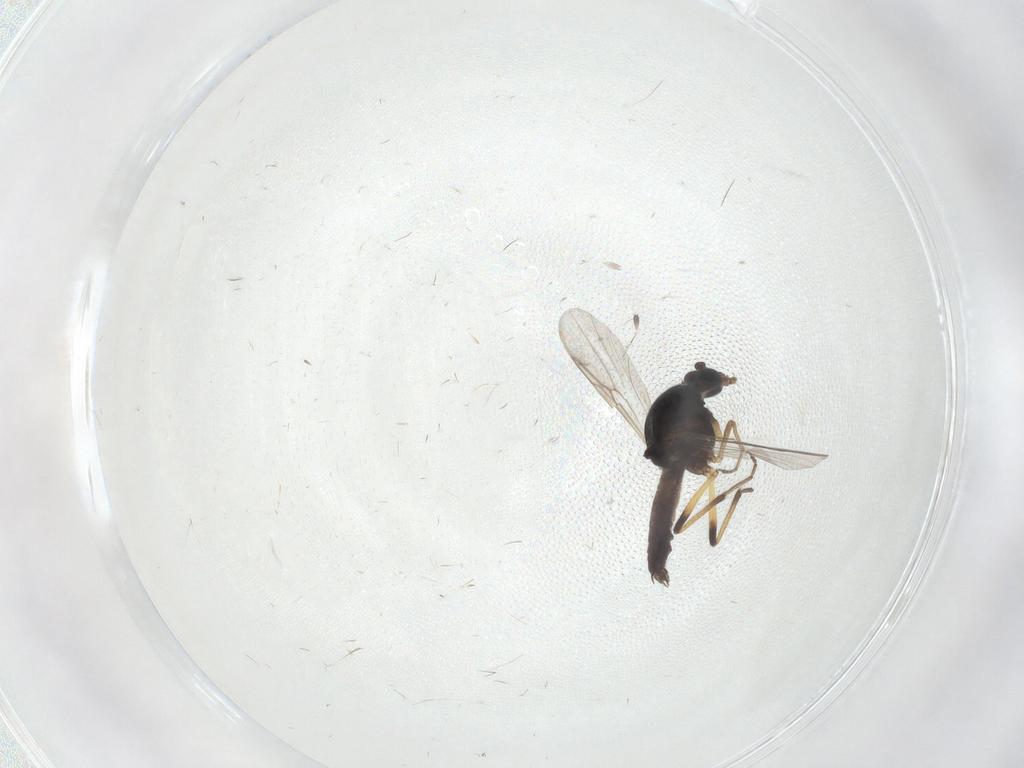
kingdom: Animalia
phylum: Arthropoda
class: Insecta
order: Diptera
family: Ceratopogonidae
